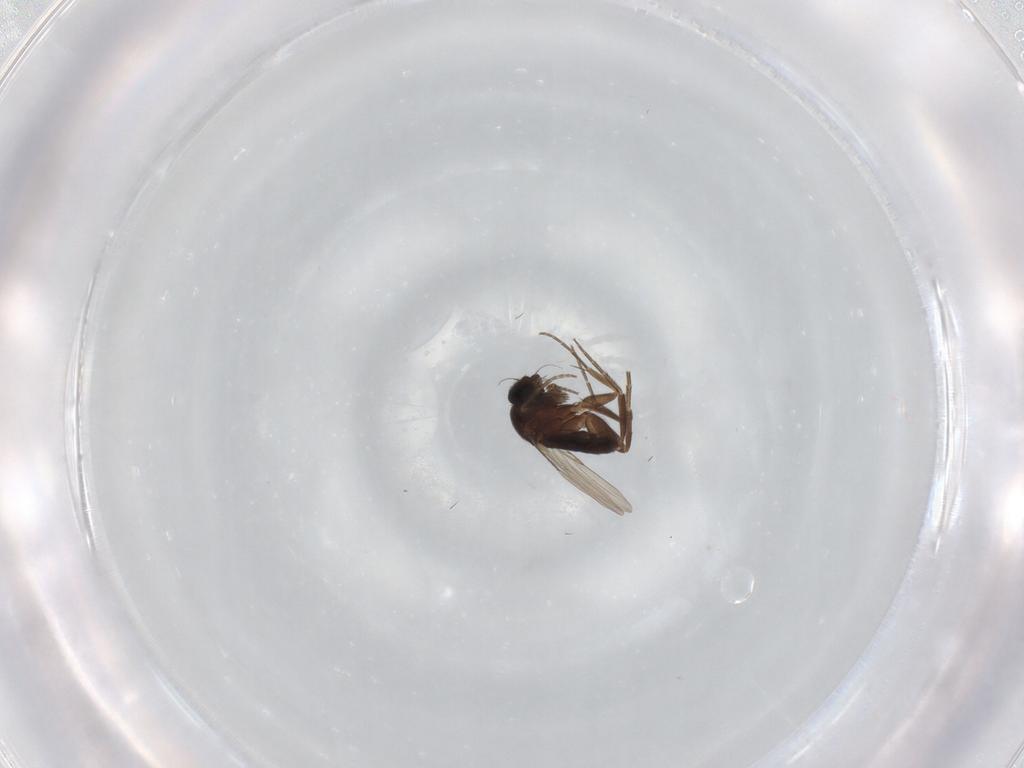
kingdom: Animalia
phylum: Arthropoda
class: Insecta
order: Diptera
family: Phoridae
